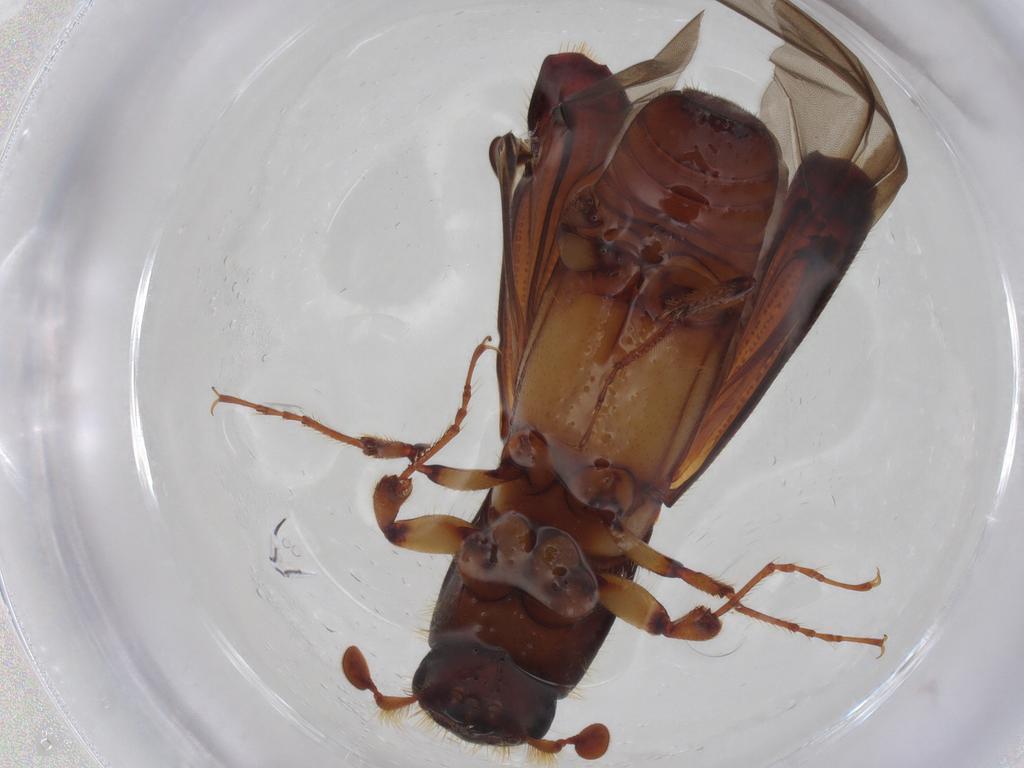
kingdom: Animalia
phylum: Arthropoda
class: Insecta
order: Coleoptera
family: Curculionidae
